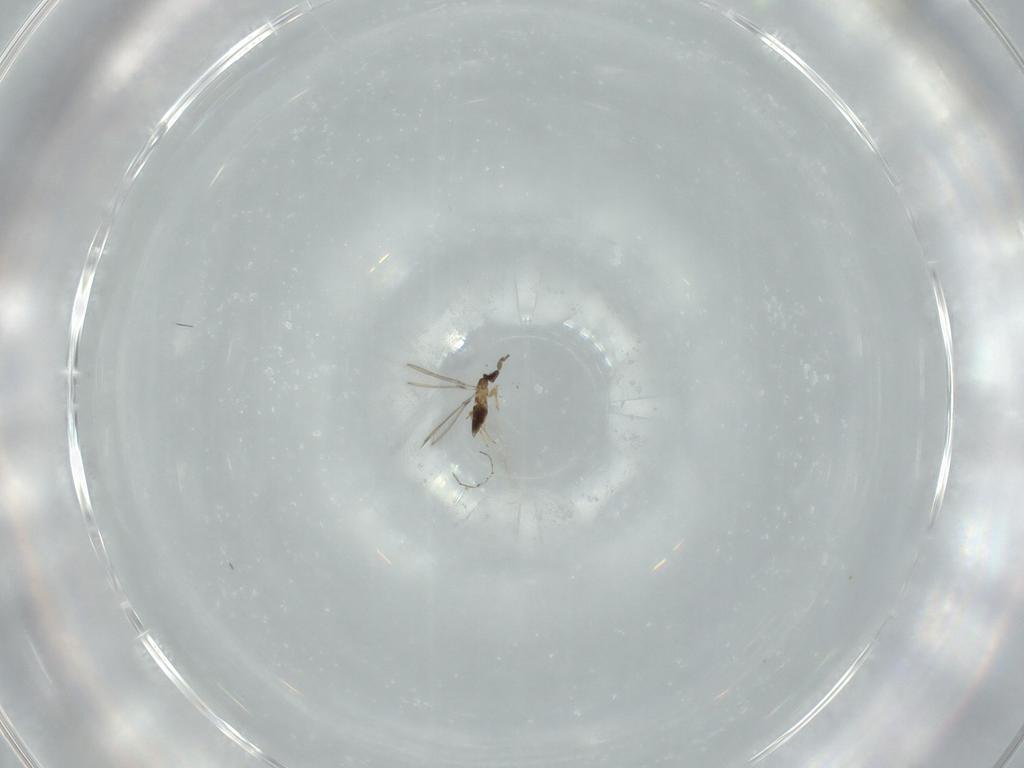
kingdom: Animalia
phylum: Arthropoda
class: Insecta
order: Hymenoptera
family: Mymaridae
